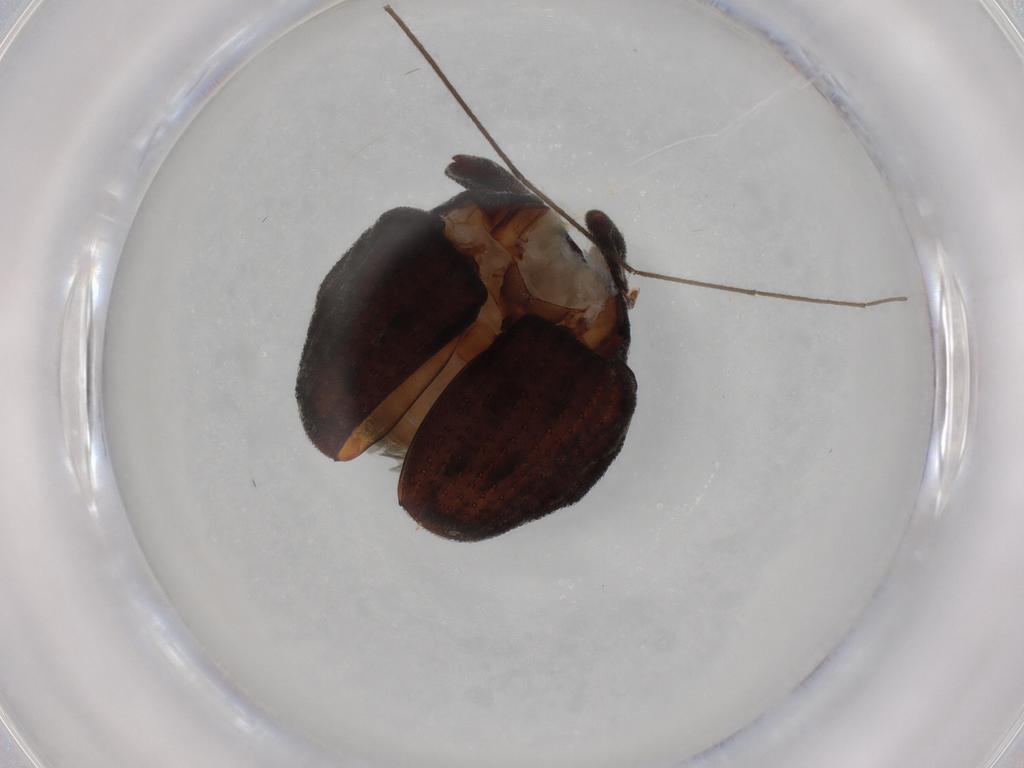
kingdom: Animalia
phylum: Arthropoda
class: Insecta
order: Coleoptera
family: Curculionidae
